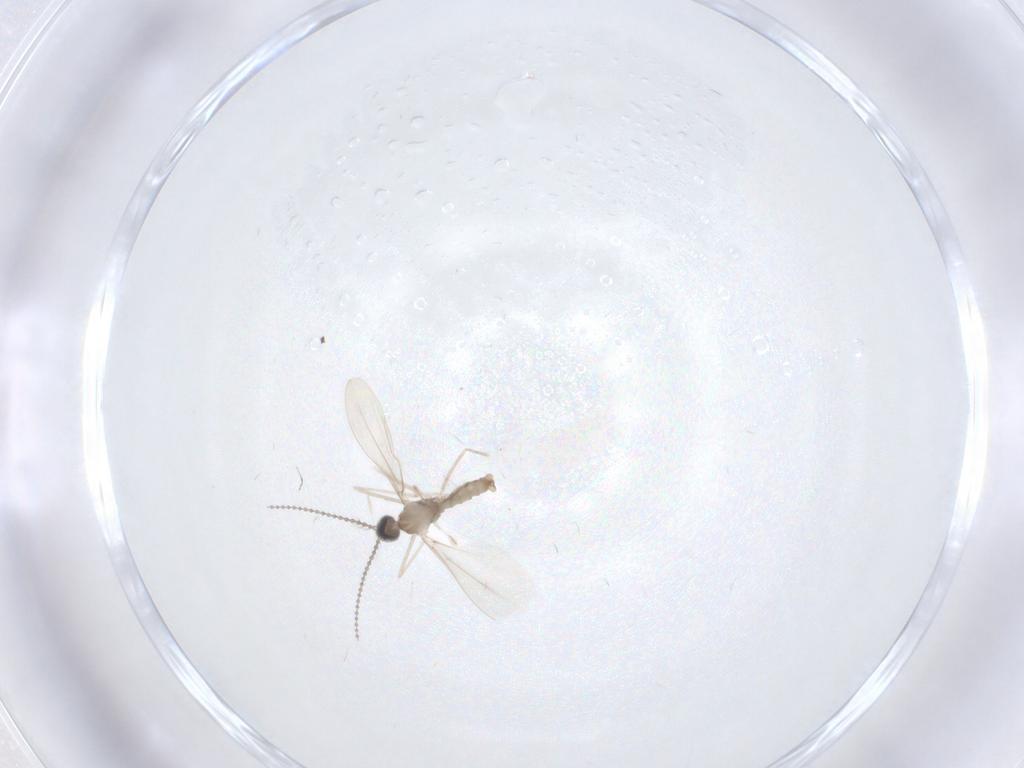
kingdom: Animalia
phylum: Arthropoda
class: Insecta
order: Diptera
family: Cecidomyiidae
